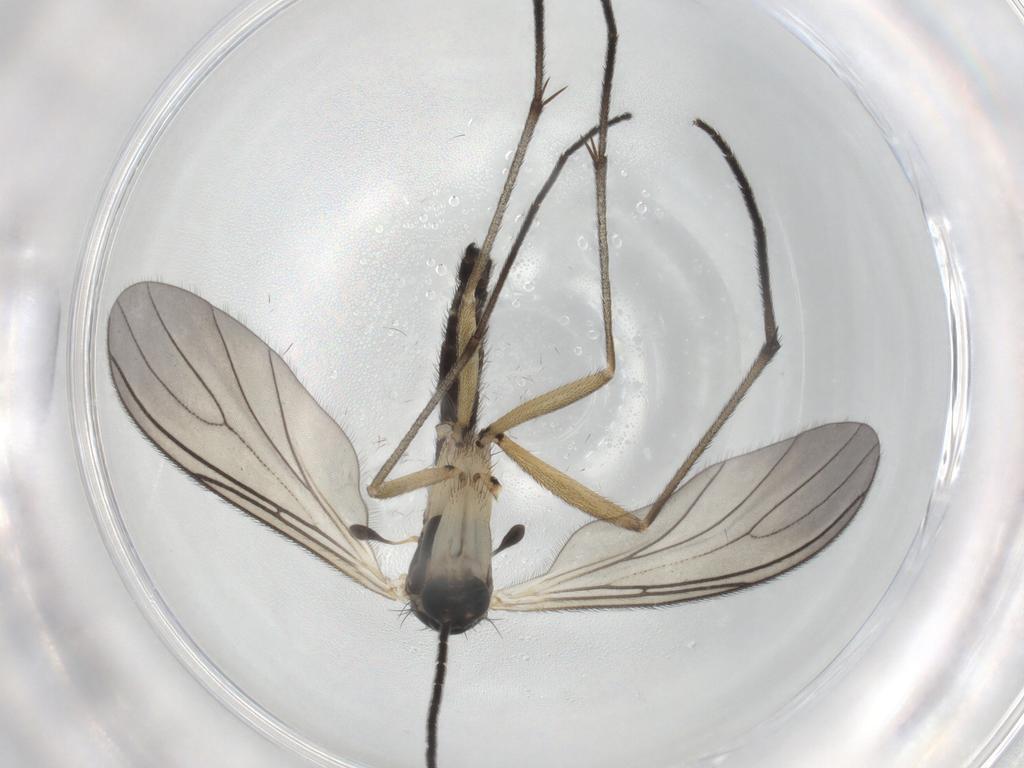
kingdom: Animalia
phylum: Arthropoda
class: Insecta
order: Diptera
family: Sciaridae
